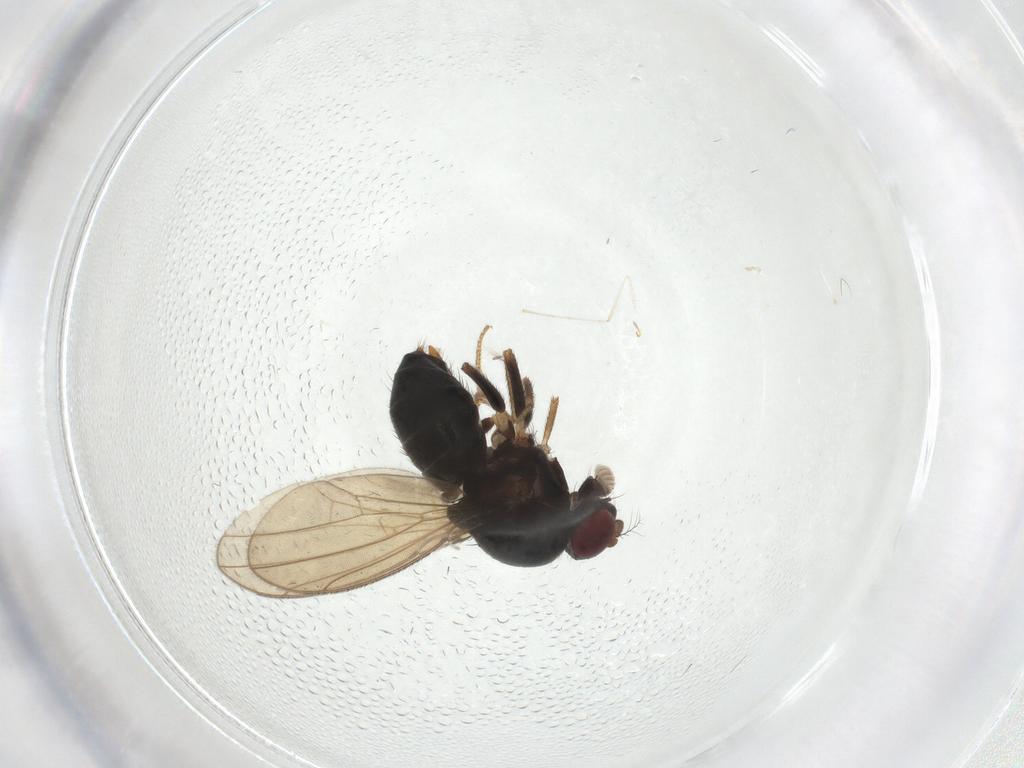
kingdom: Animalia
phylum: Arthropoda
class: Insecta
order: Diptera
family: Drosophilidae
